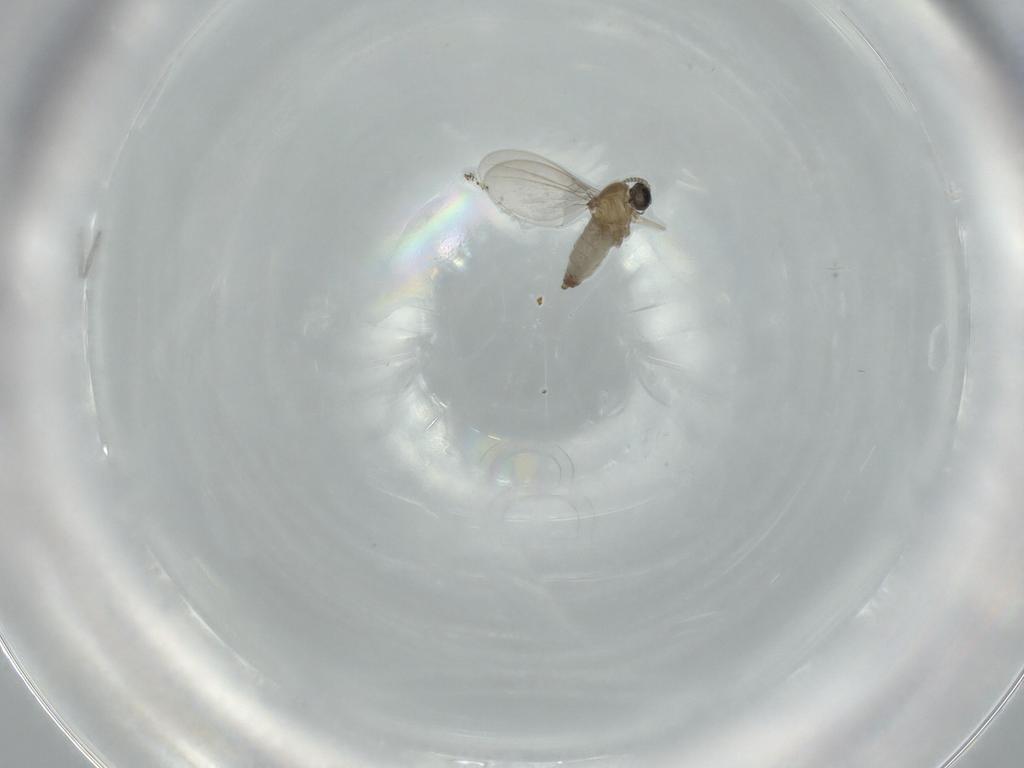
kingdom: Animalia
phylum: Arthropoda
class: Insecta
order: Diptera
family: Cecidomyiidae
